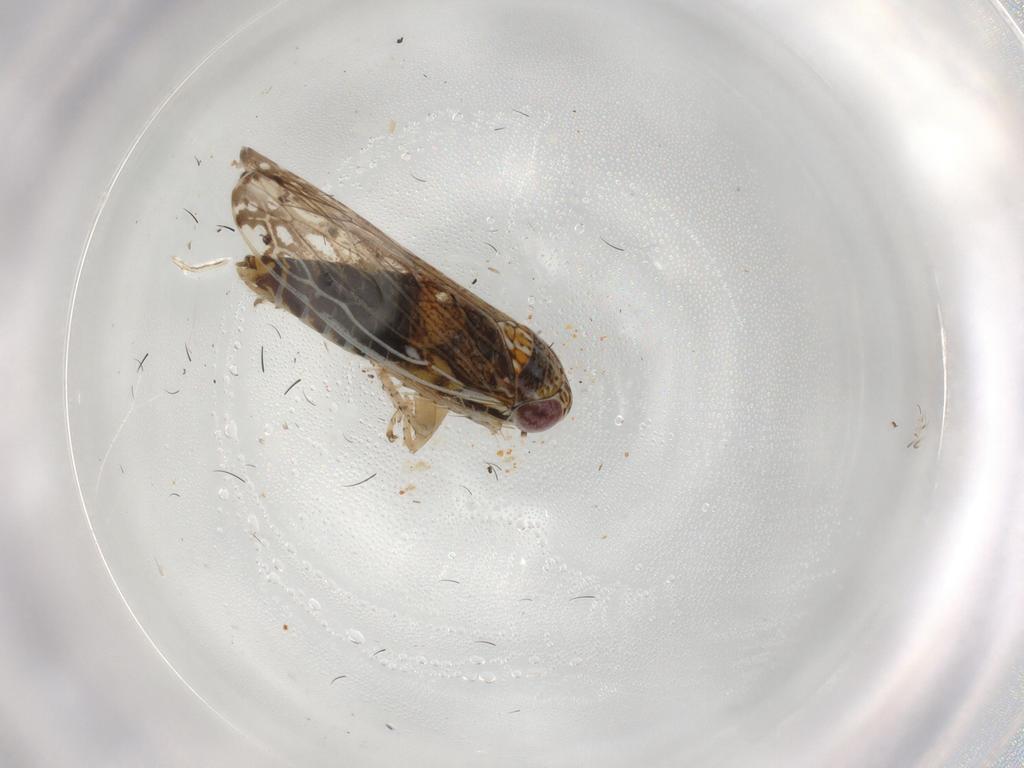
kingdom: Animalia
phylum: Arthropoda
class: Insecta
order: Hemiptera
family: Cicadellidae
